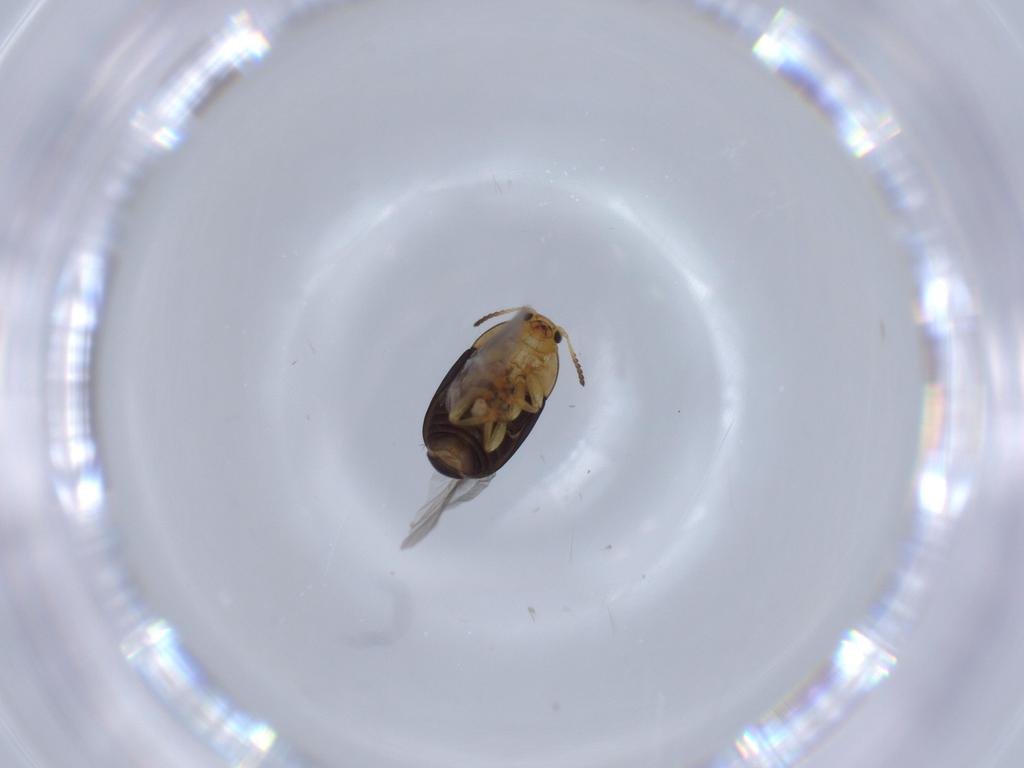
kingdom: Animalia
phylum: Arthropoda
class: Insecta
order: Coleoptera
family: Chrysomelidae
